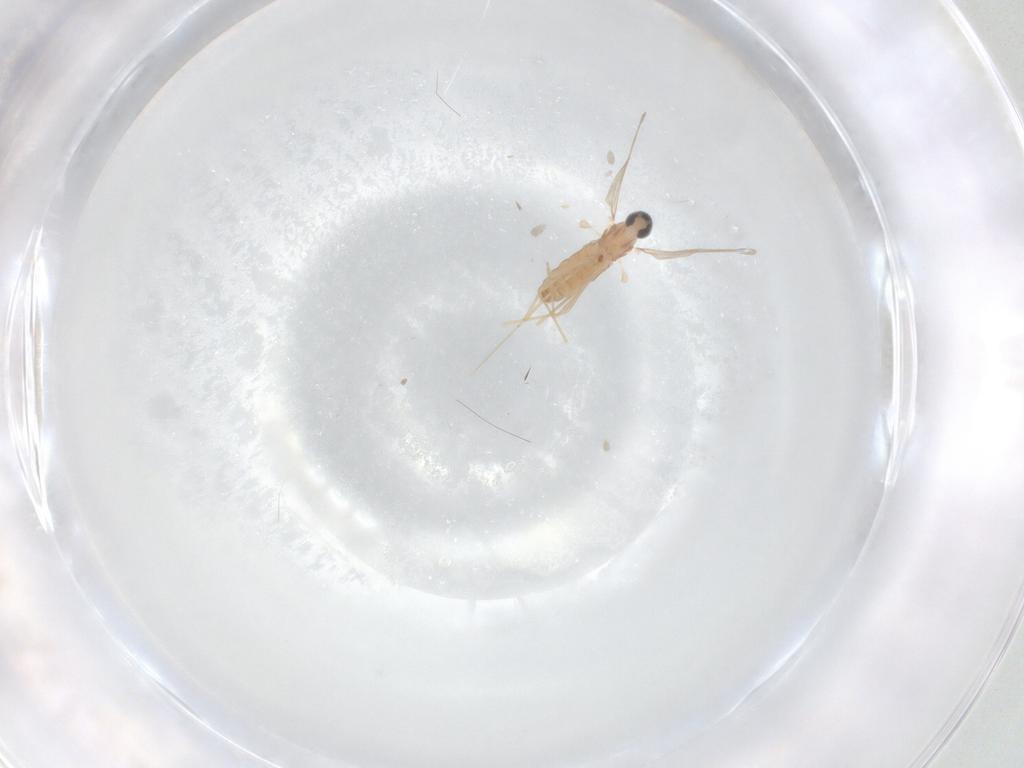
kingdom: Animalia
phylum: Arthropoda
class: Insecta
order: Diptera
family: Cecidomyiidae
